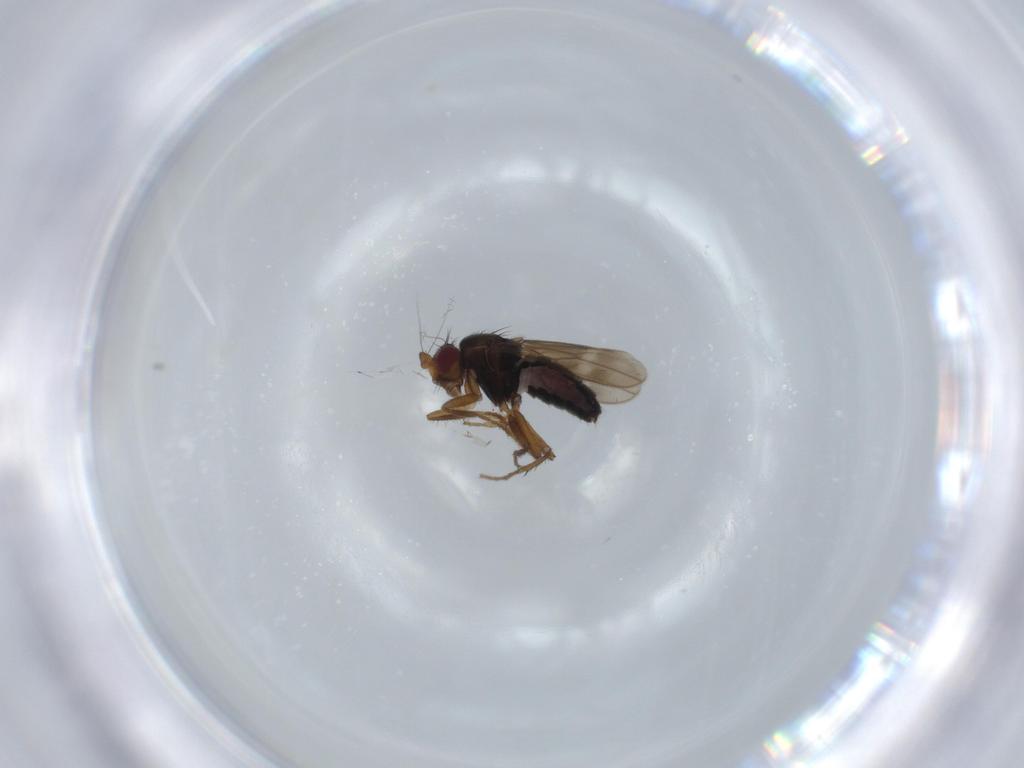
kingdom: Animalia
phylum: Arthropoda
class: Insecta
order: Diptera
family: Sphaeroceridae
